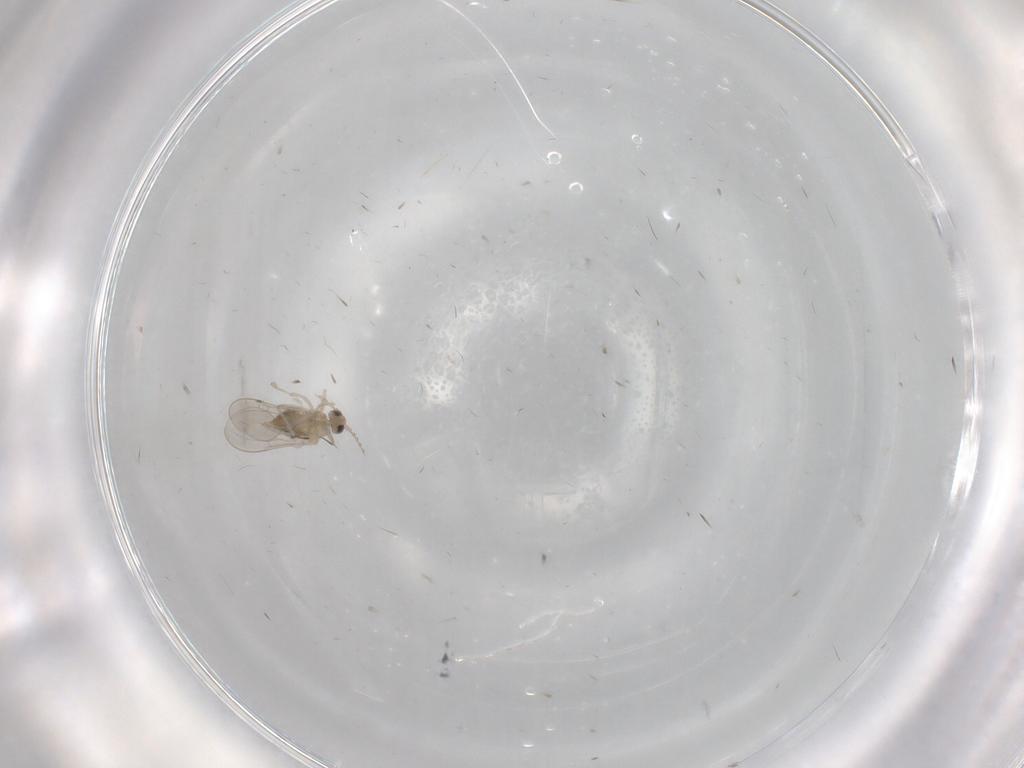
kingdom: Animalia
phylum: Arthropoda
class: Insecta
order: Diptera
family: Cecidomyiidae
